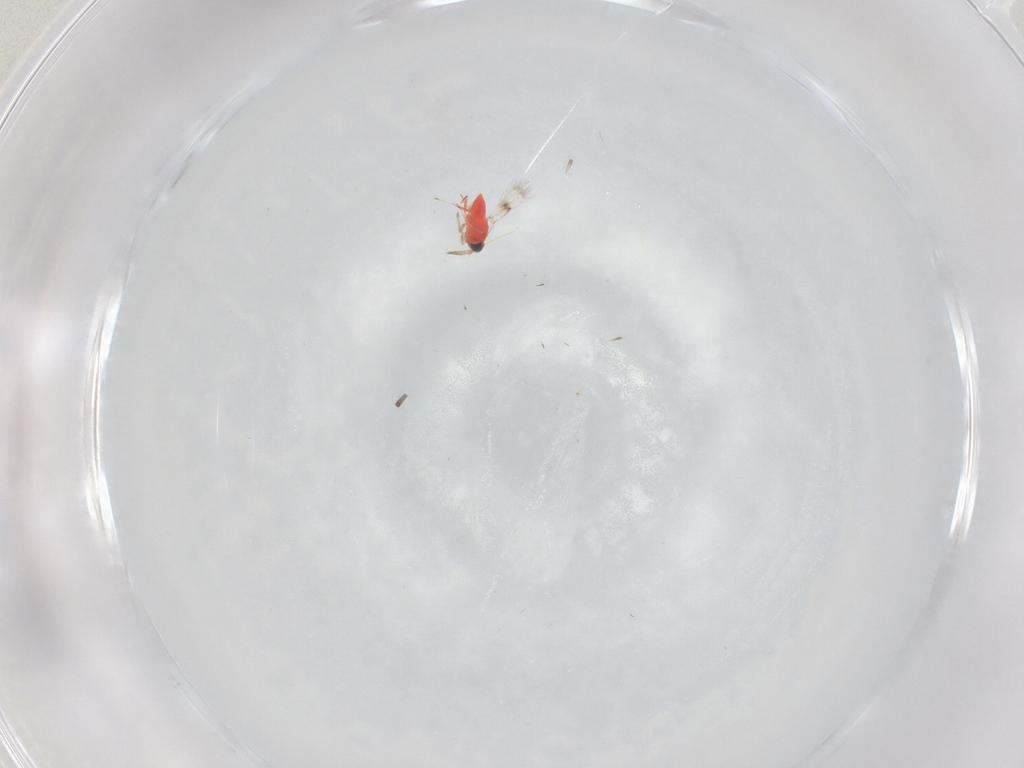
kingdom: Animalia
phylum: Arthropoda
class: Insecta
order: Hymenoptera
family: Trichogrammatidae
